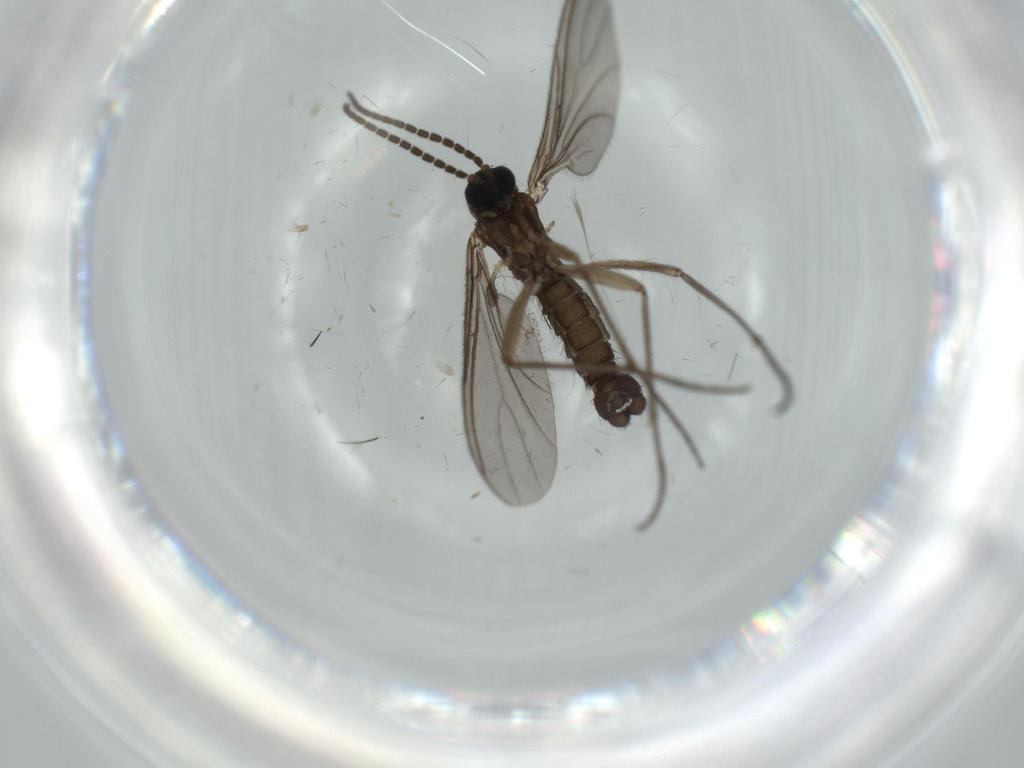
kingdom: Animalia
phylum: Arthropoda
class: Insecta
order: Diptera
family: Sciaridae
